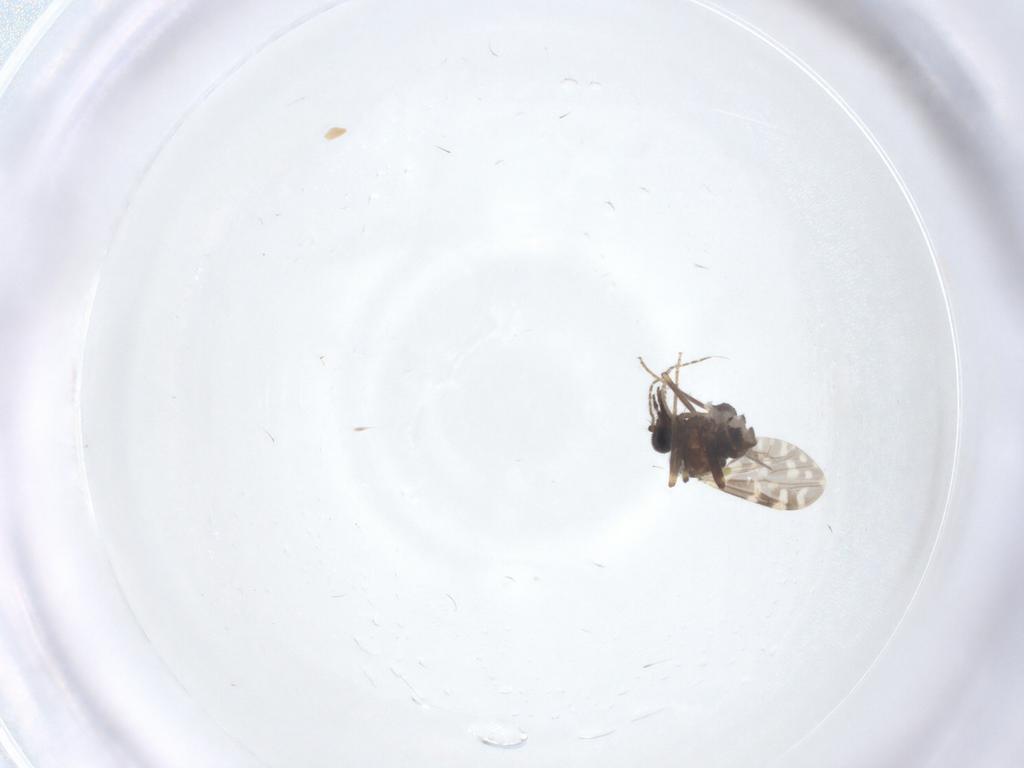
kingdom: Animalia
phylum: Arthropoda
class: Insecta
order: Diptera
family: Ceratopogonidae
